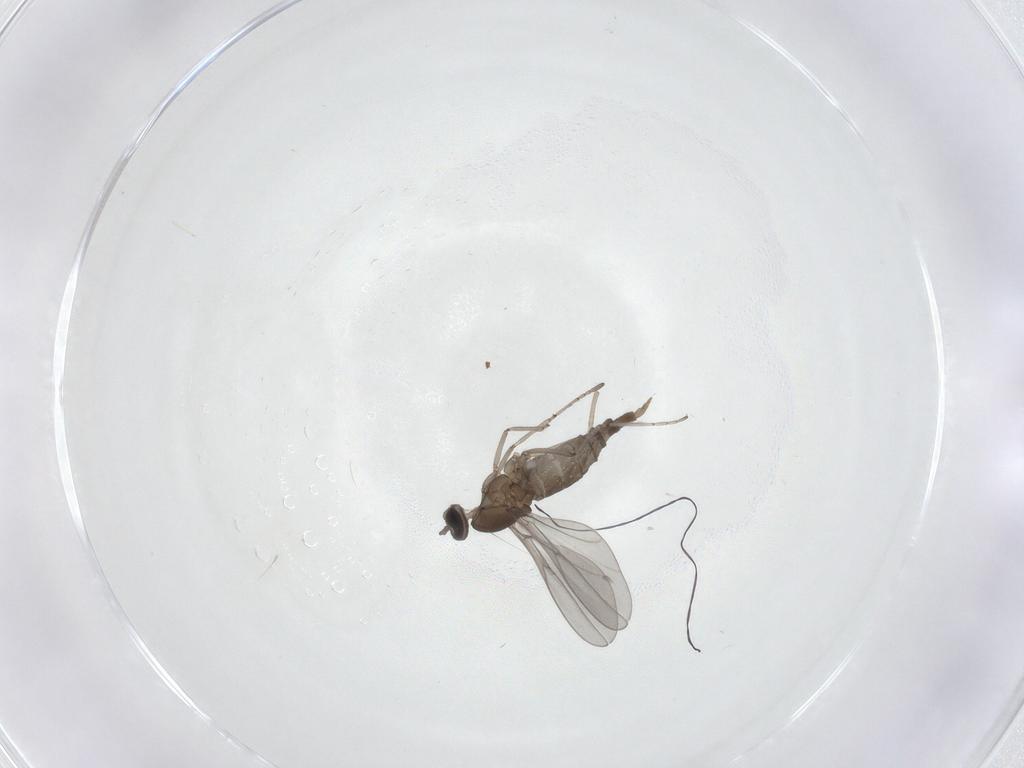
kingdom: Animalia
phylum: Arthropoda
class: Insecta
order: Diptera
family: Cecidomyiidae
